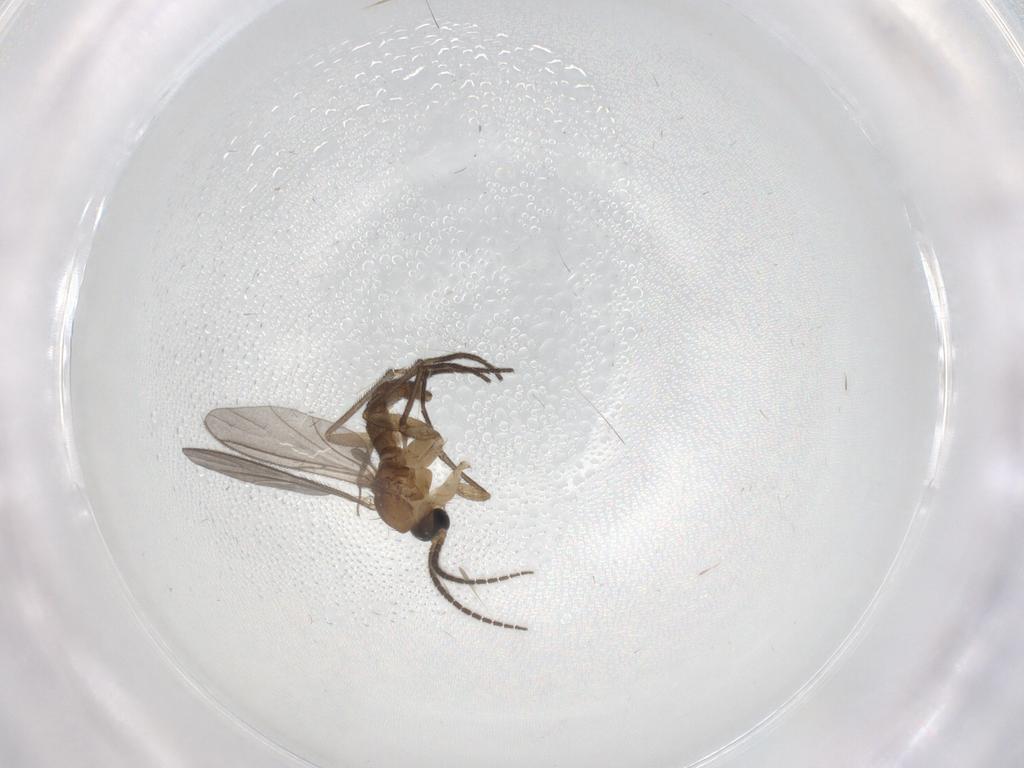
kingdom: Animalia
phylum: Arthropoda
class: Insecta
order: Diptera
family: Sciaridae
